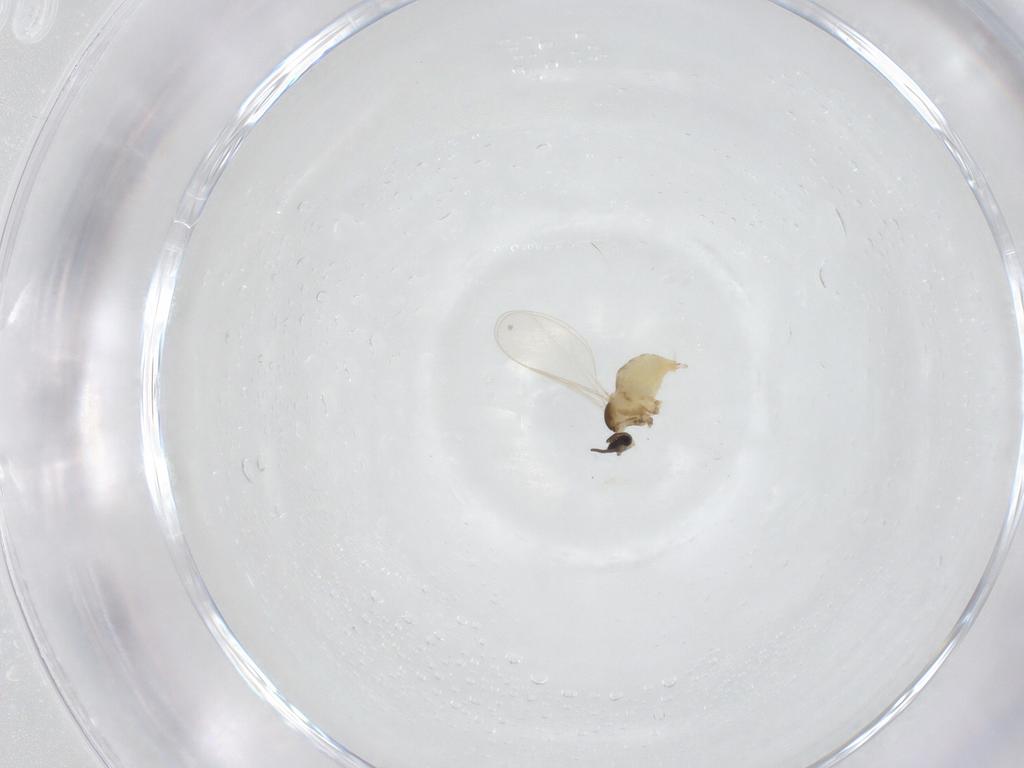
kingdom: Animalia
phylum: Arthropoda
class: Insecta
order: Diptera
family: Cecidomyiidae
